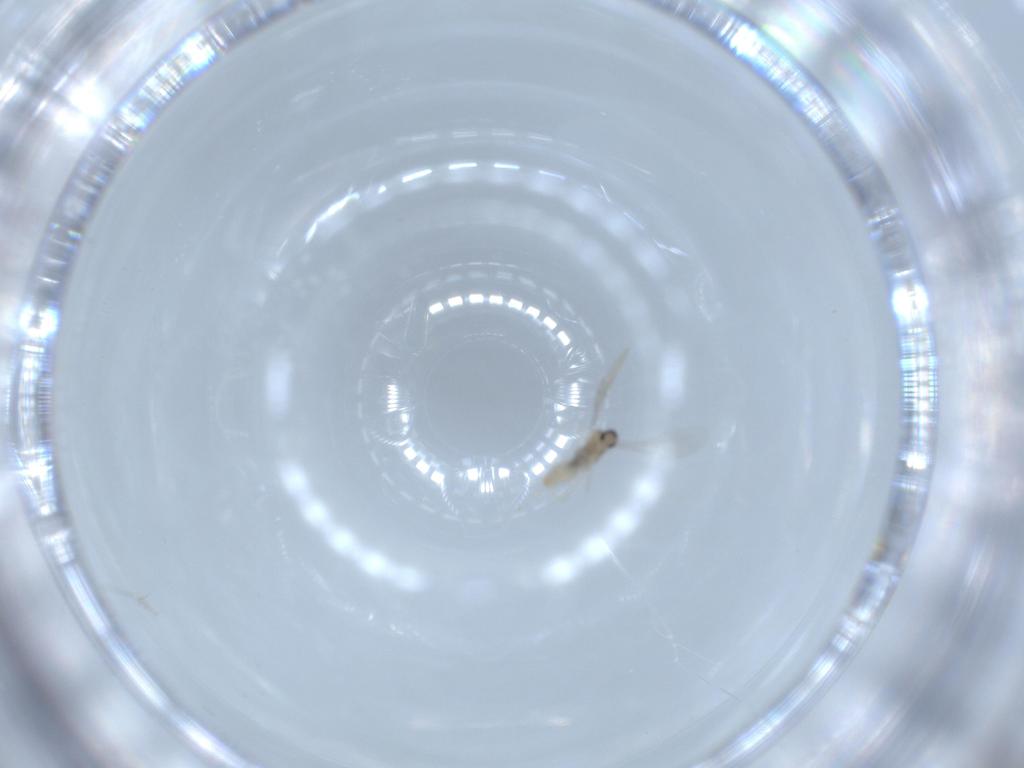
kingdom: Animalia
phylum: Arthropoda
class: Insecta
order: Diptera
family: Cecidomyiidae
